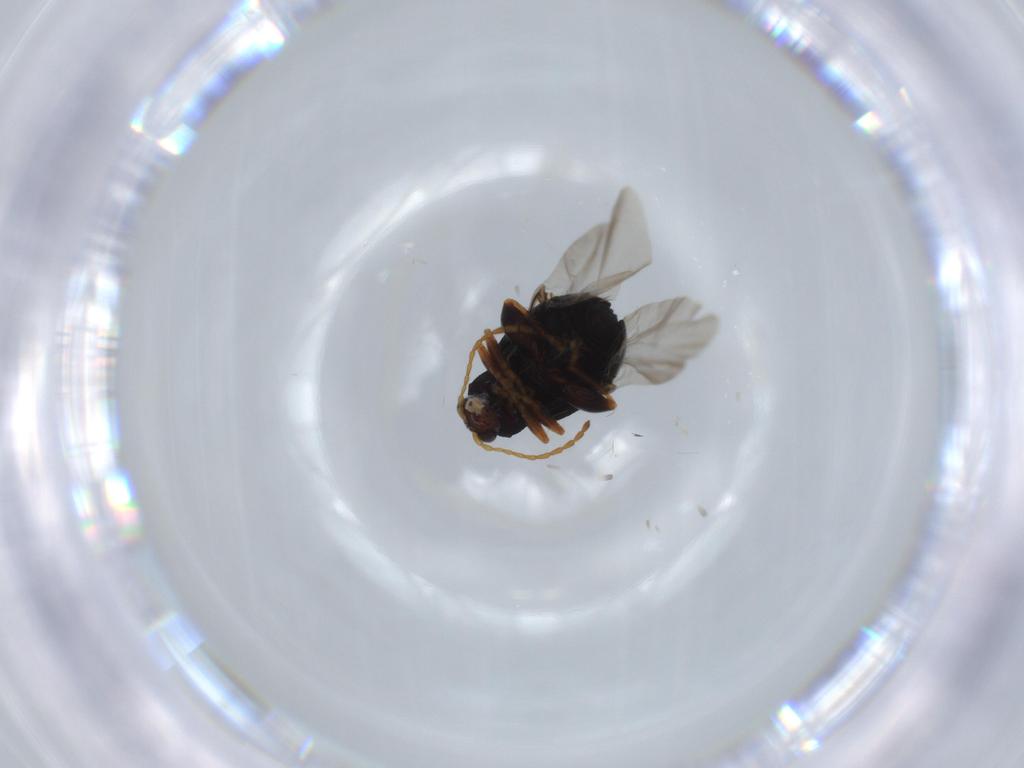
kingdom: Animalia
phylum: Arthropoda
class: Insecta
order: Coleoptera
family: Chrysomelidae
